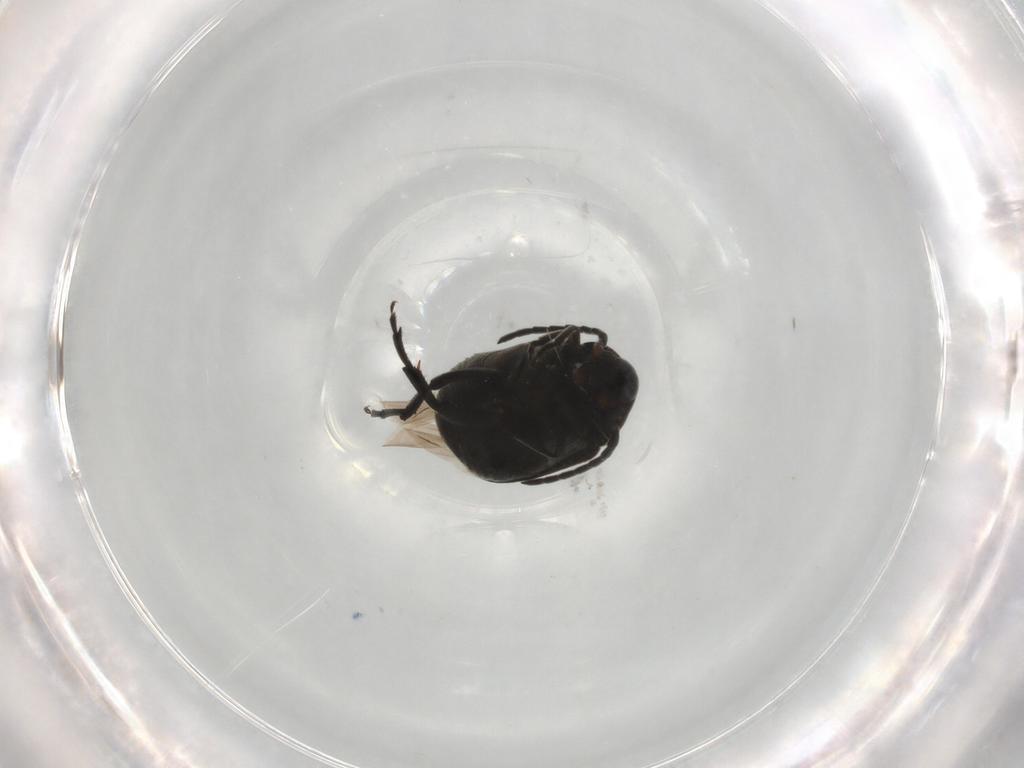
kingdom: Animalia
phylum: Arthropoda
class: Insecta
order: Coleoptera
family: Chrysomelidae
